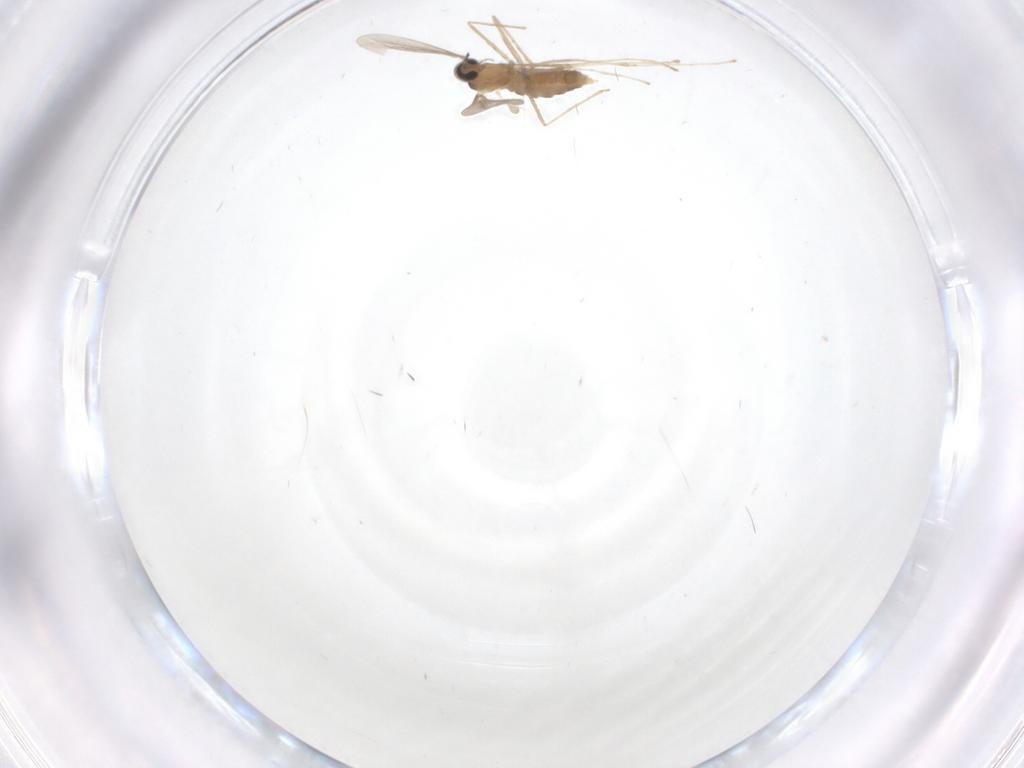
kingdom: Animalia
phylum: Arthropoda
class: Insecta
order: Diptera
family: Cecidomyiidae
